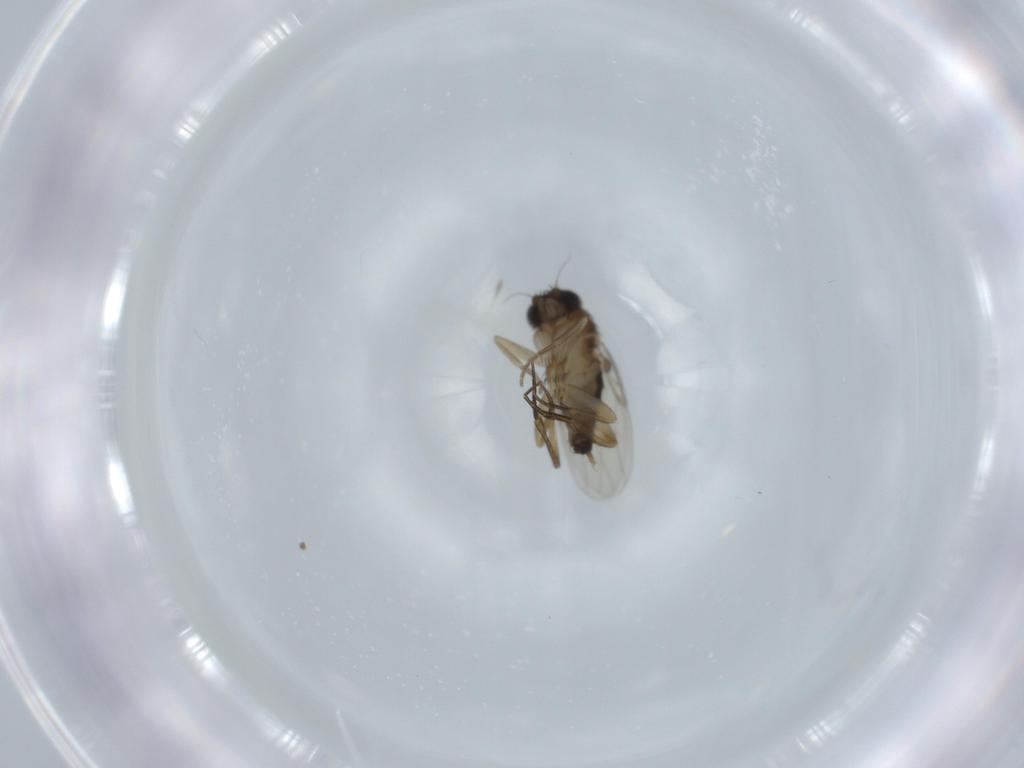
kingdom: Animalia
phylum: Arthropoda
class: Insecta
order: Diptera
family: Phoridae
